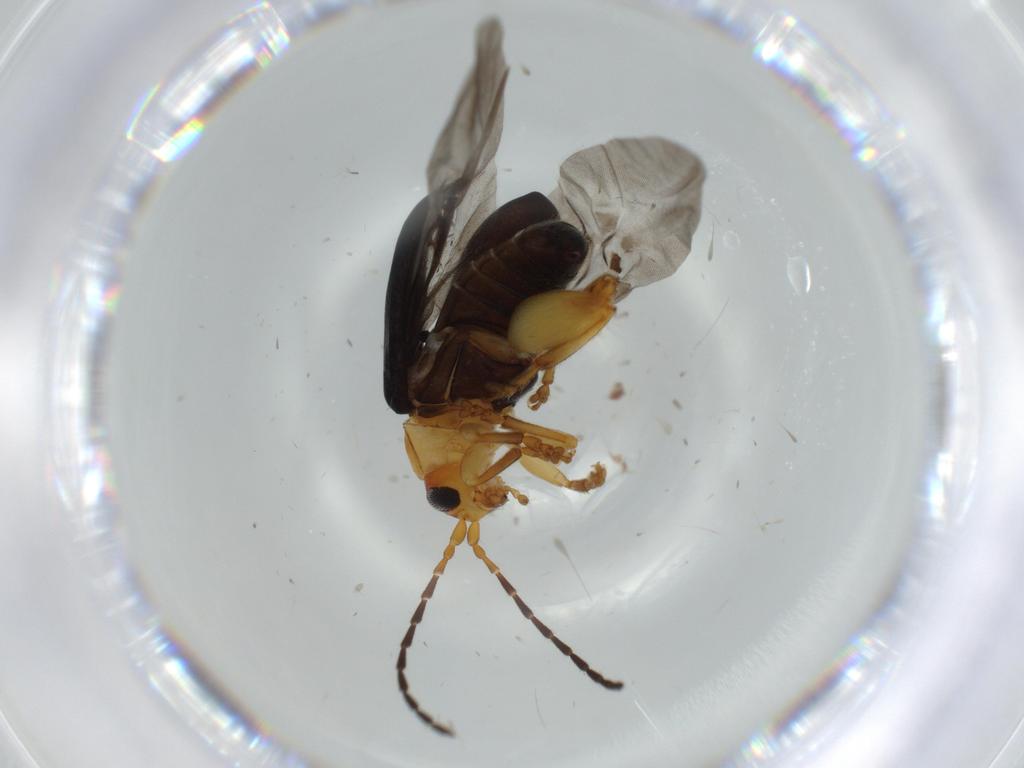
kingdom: Animalia
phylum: Arthropoda
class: Insecta
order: Coleoptera
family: Chrysomelidae
